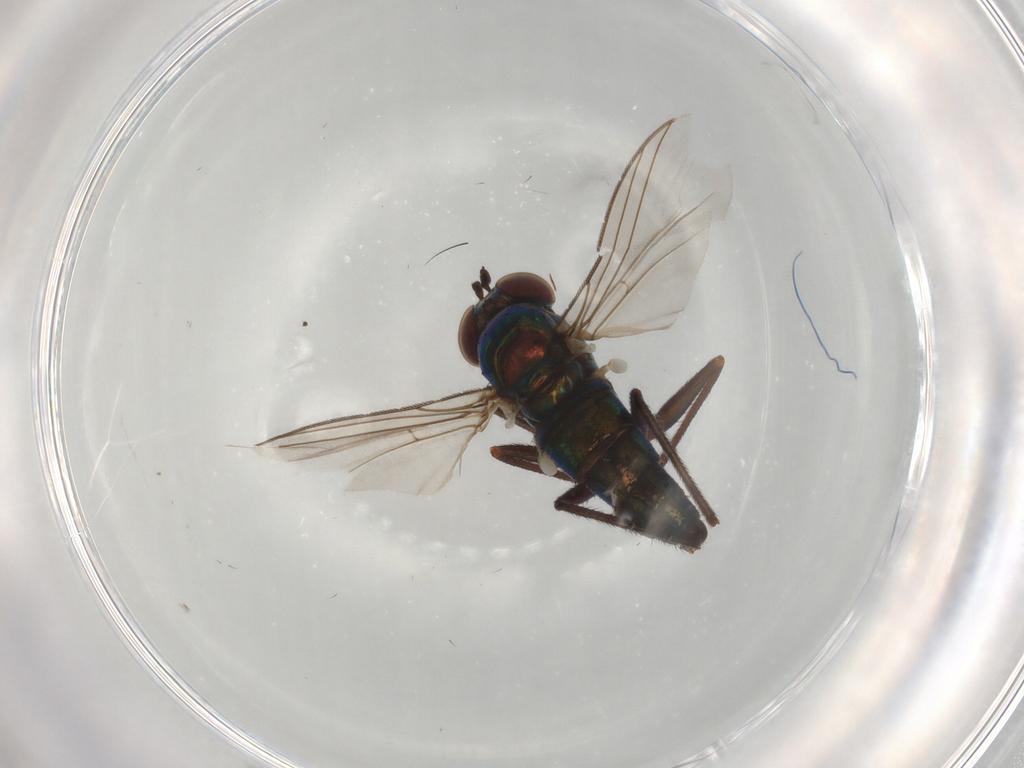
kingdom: Animalia
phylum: Arthropoda
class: Insecta
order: Diptera
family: Dolichopodidae
